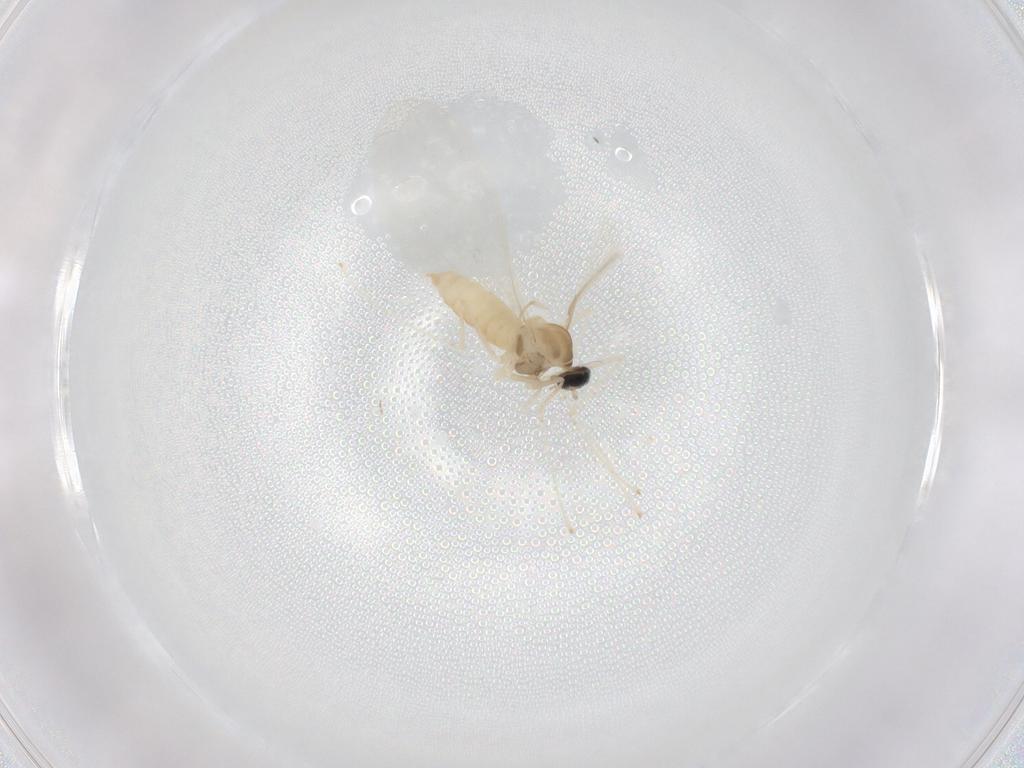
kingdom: Animalia
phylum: Arthropoda
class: Insecta
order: Diptera
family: Cecidomyiidae
